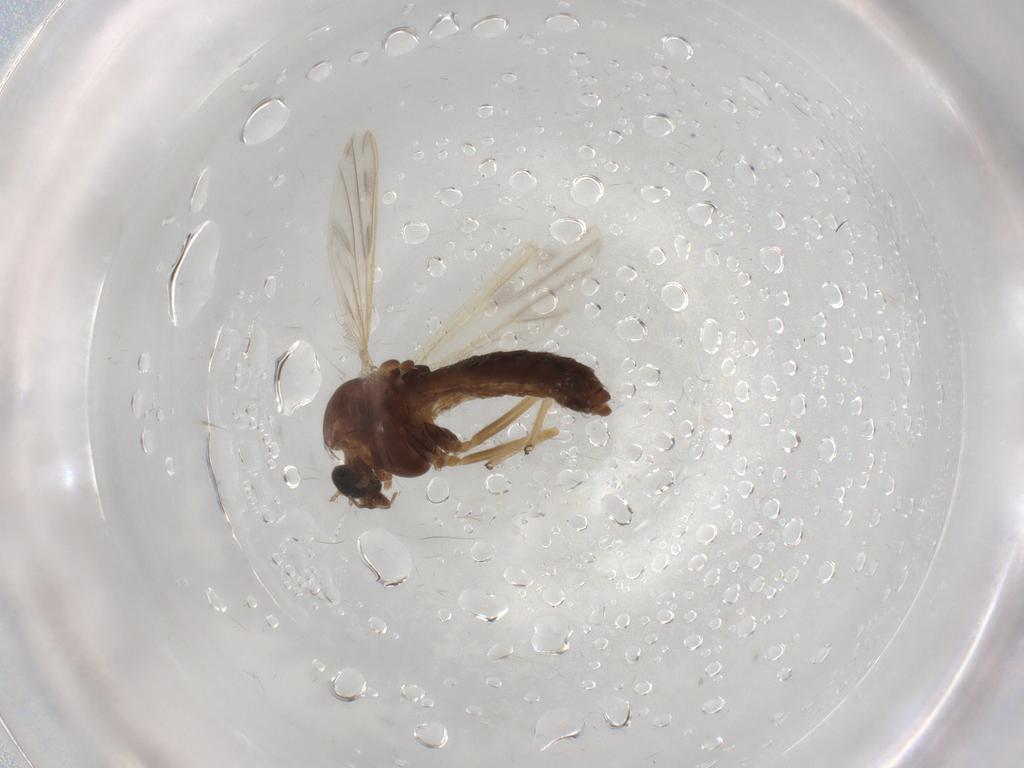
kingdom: Animalia
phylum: Arthropoda
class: Insecta
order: Diptera
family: Chironomidae
